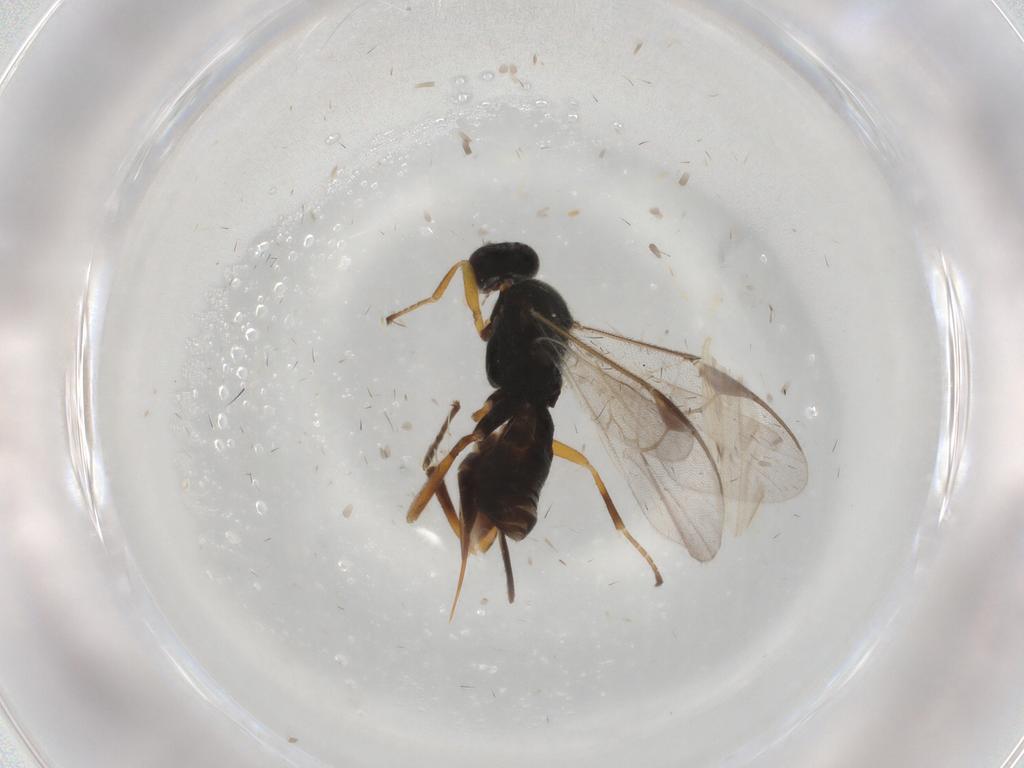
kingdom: Animalia
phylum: Arthropoda
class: Insecta
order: Hymenoptera
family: Braconidae
